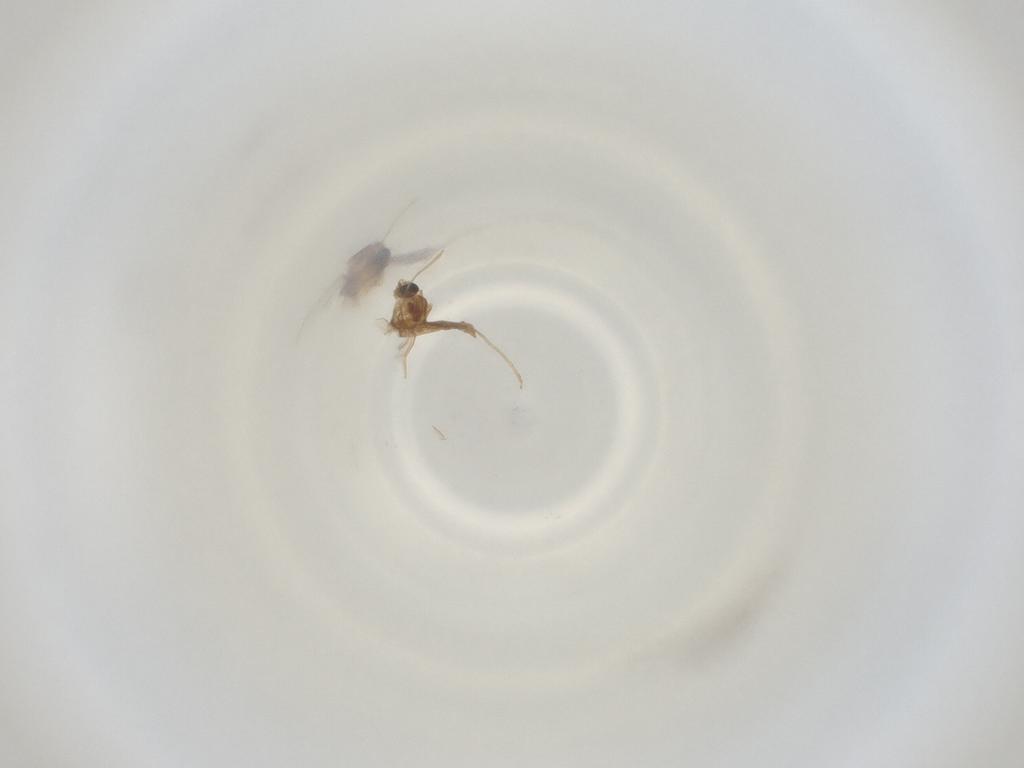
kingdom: Animalia
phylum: Arthropoda
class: Insecta
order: Diptera
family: Cecidomyiidae
